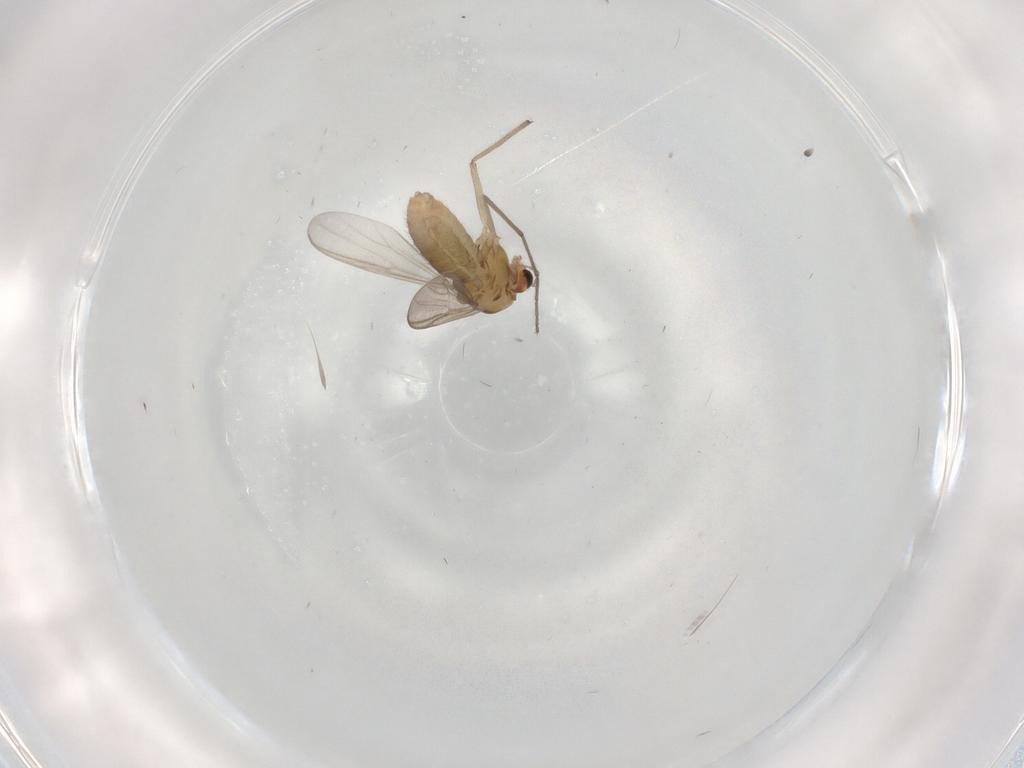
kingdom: Animalia
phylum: Arthropoda
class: Insecta
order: Diptera
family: Chironomidae
